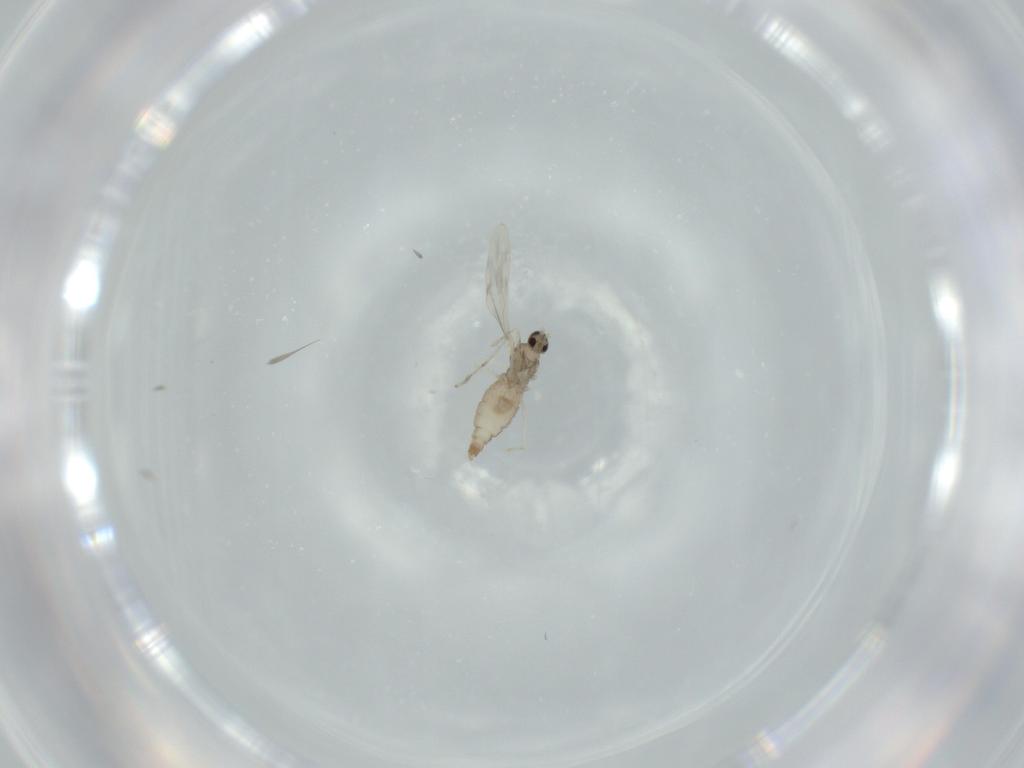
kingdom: Animalia
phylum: Arthropoda
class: Insecta
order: Diptera
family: Cecidomyiidae
